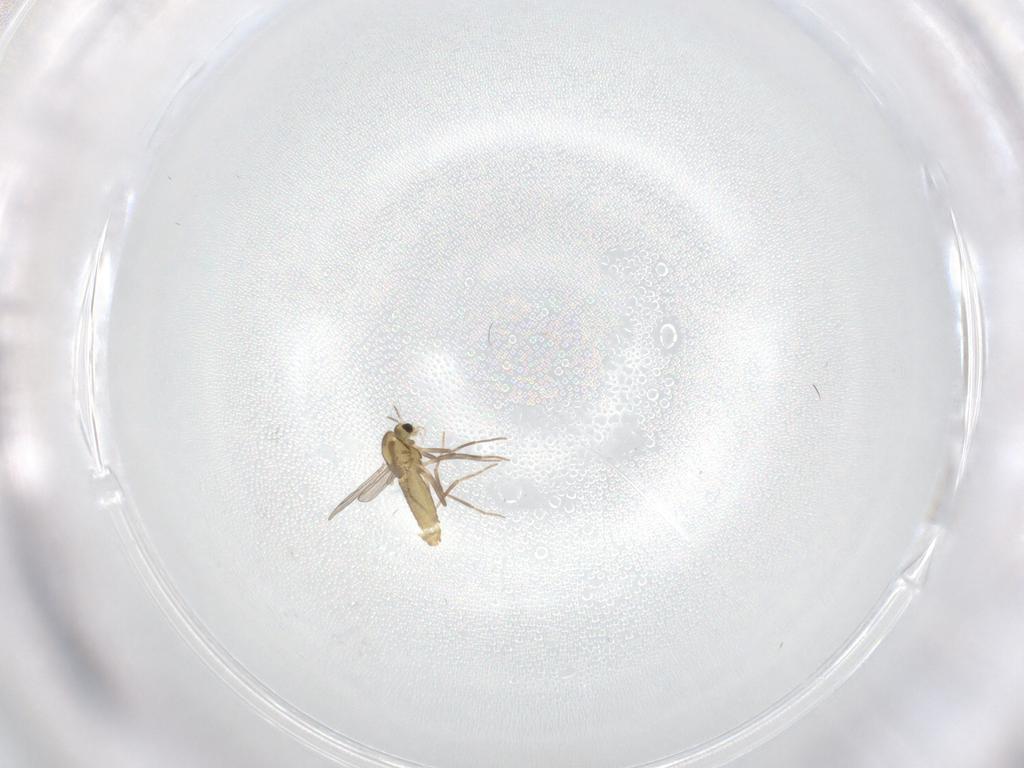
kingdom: Animalia
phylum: Arthropoda
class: Insecta
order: Diptera
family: Chironomidae
